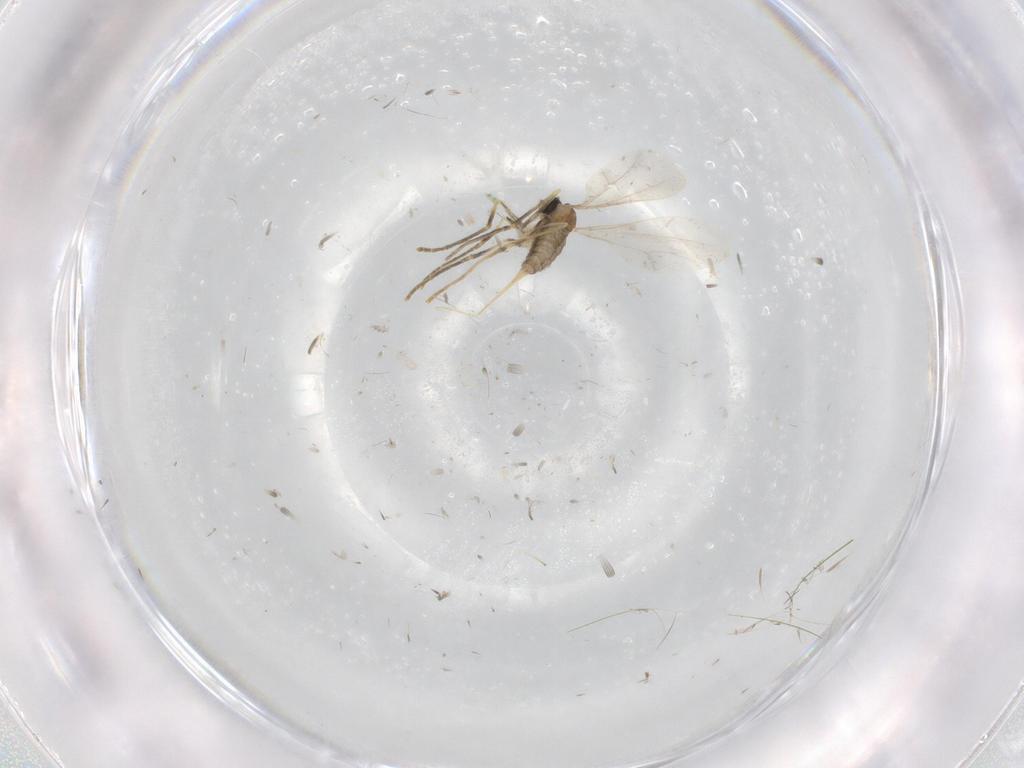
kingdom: Animalia
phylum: Arthropoda
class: Insecta
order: Diptera
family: Cecidomyiidae
